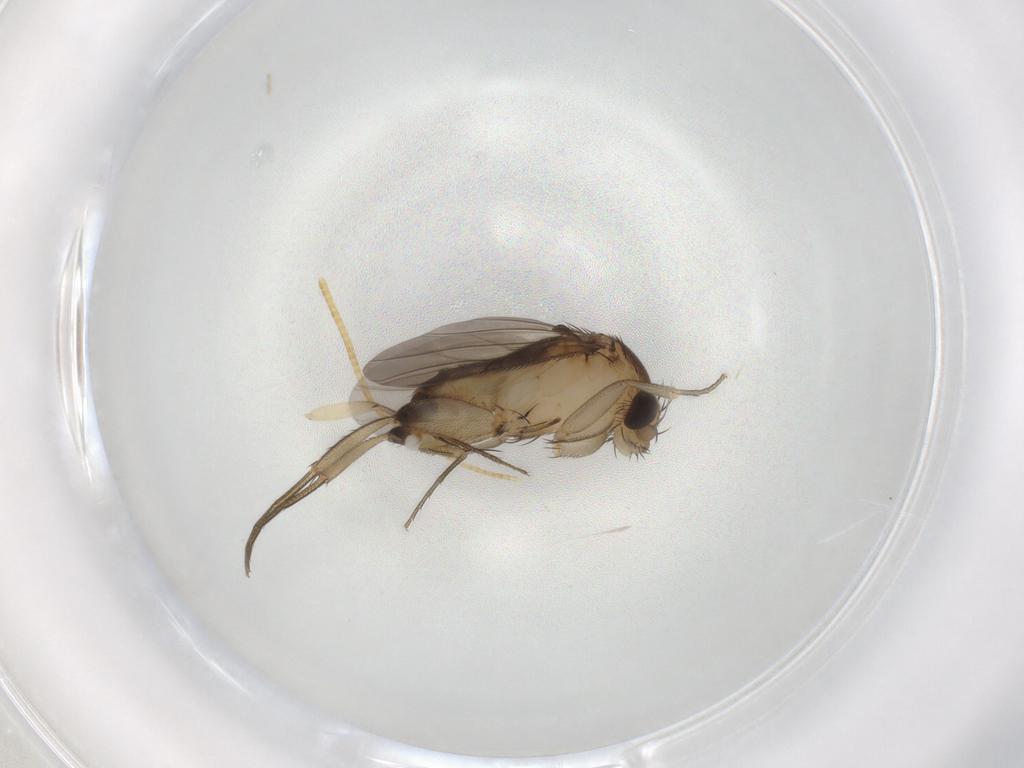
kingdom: Animalia
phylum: Arthropoda
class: Insecta
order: Diptera
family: Phoridae
